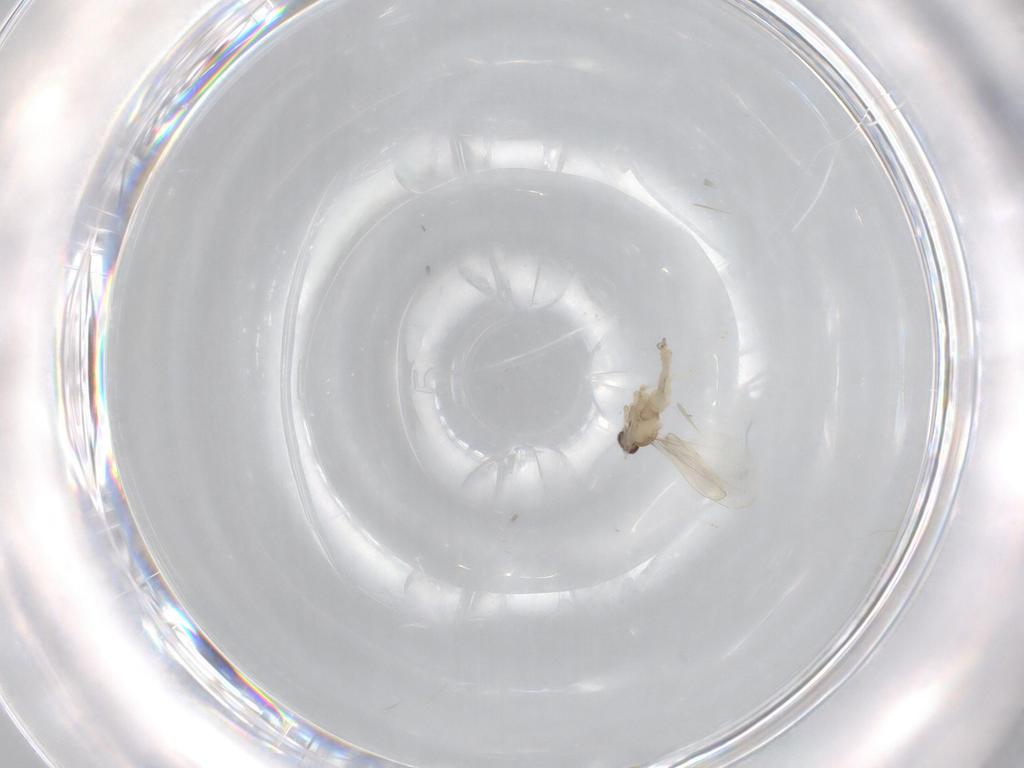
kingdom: Animalia
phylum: Arthropoda
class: Insecta
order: Diptera
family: Cecidomyiidae
